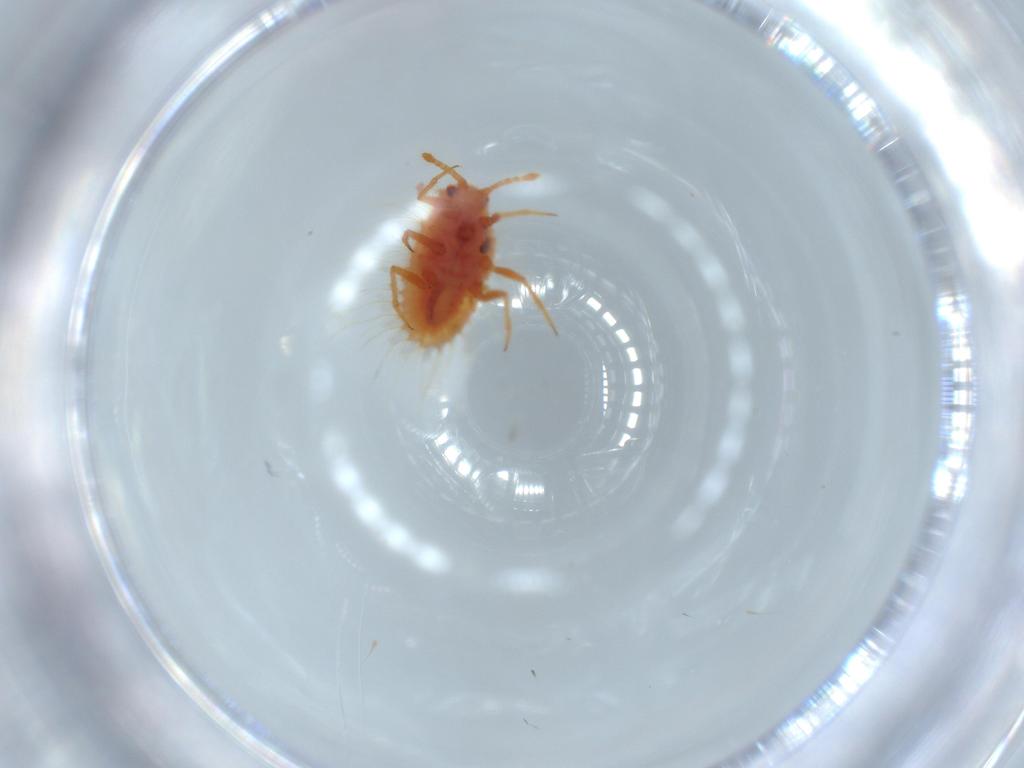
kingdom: Animalia
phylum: Arthropoda
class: Insecta
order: Hemiptera
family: Coccoidea_incertae_sedis
